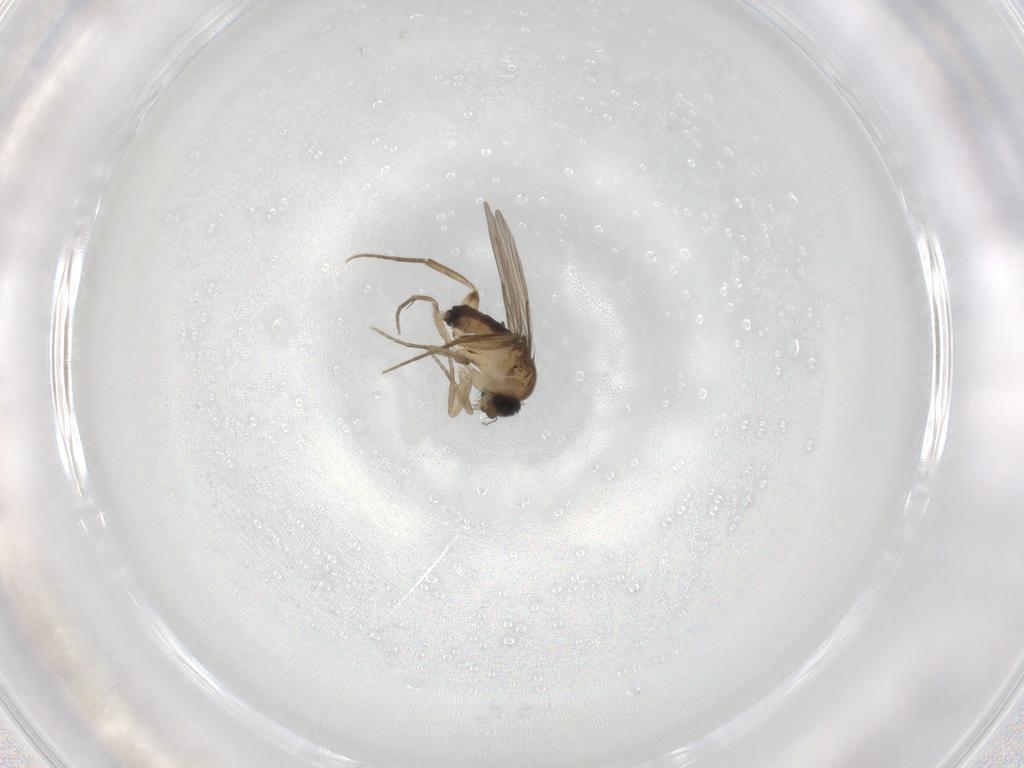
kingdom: Animalia
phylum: Arthropoda
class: Insecta
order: Diptera
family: Phoridae
